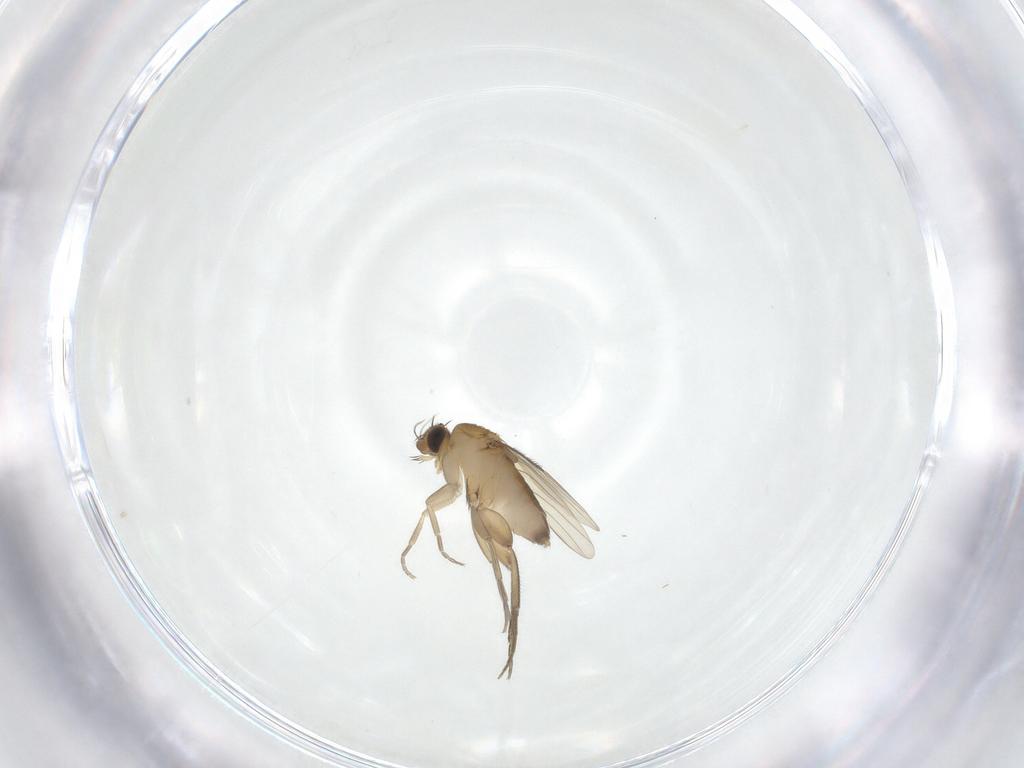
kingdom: Animalia
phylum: Arthropoda
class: Insecta
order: Diptera
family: Phoridae
